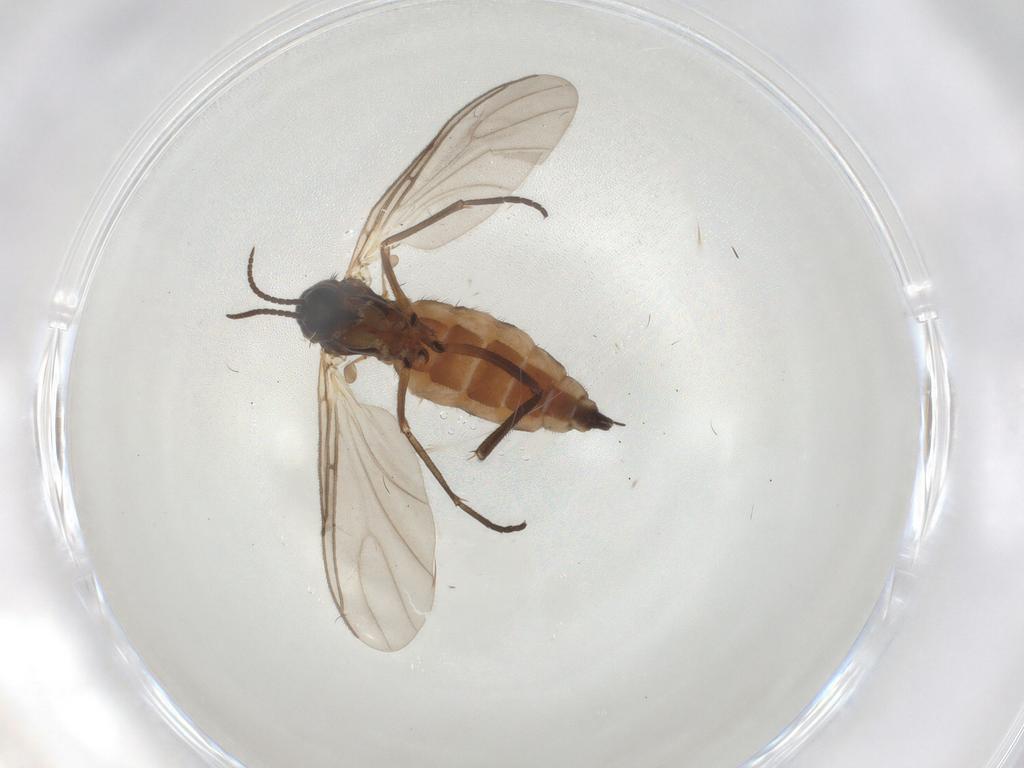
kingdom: Animalia
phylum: Arthropoda
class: Insecta
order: Diptera
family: Sciaridae
